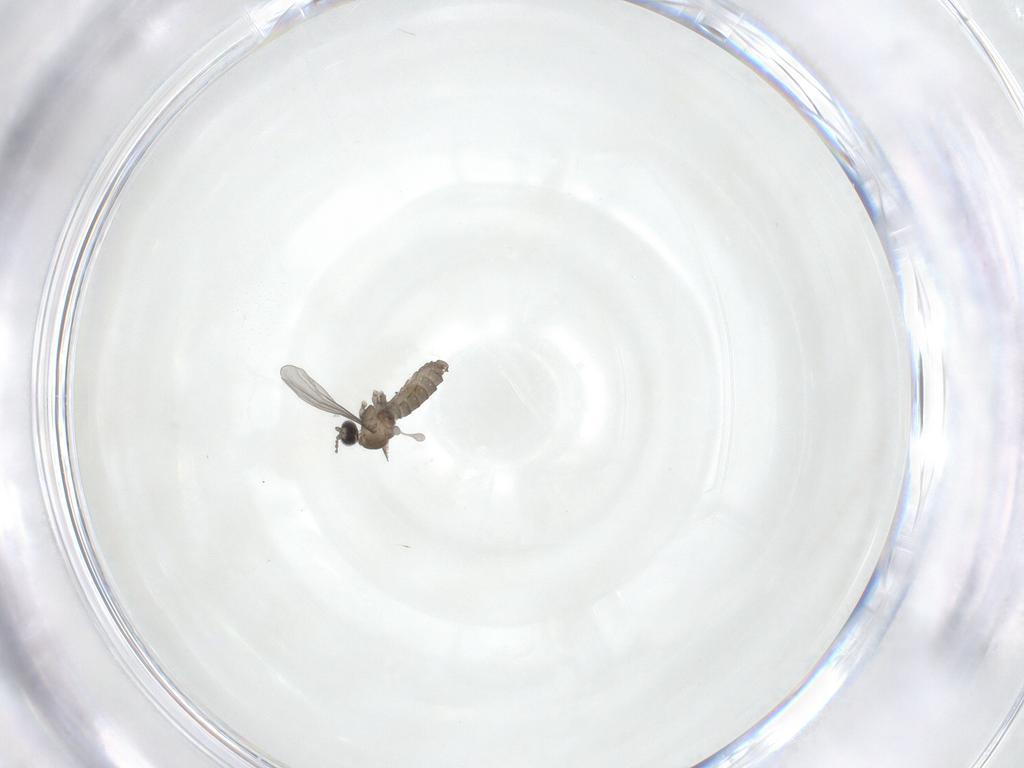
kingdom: Animalia
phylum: Arthropoda
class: Insecta
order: Diptera
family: Cecidomyiidae
